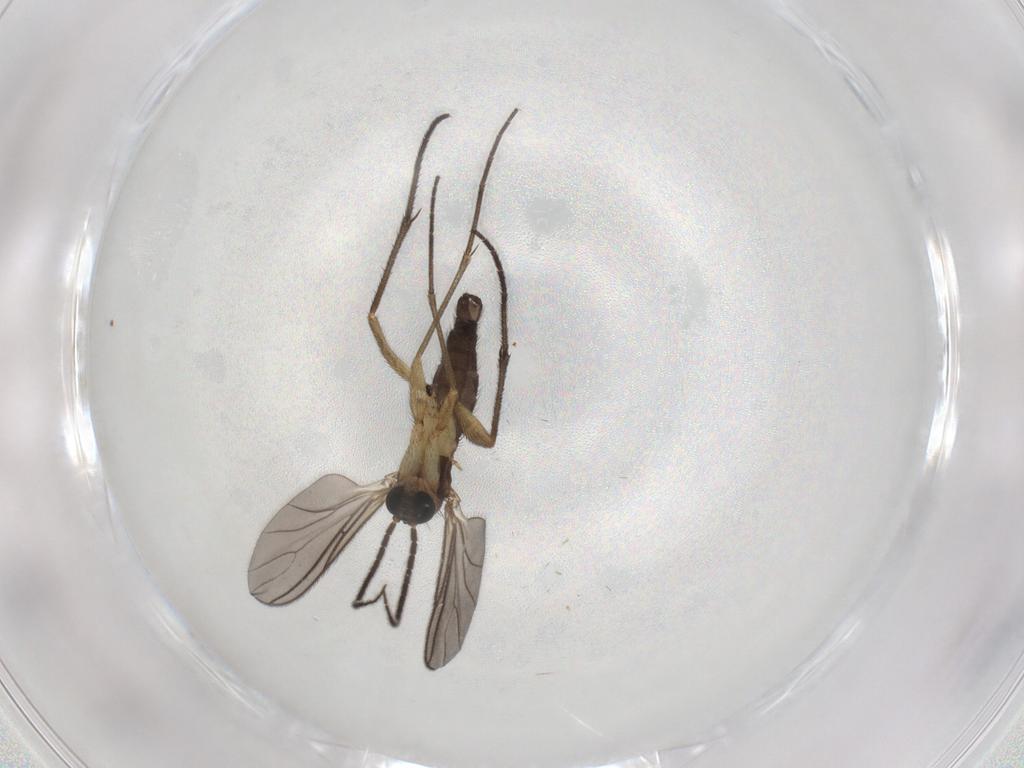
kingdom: Animalia
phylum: Arthropoda
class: Insecta
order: Diptera
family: Sciaridae
